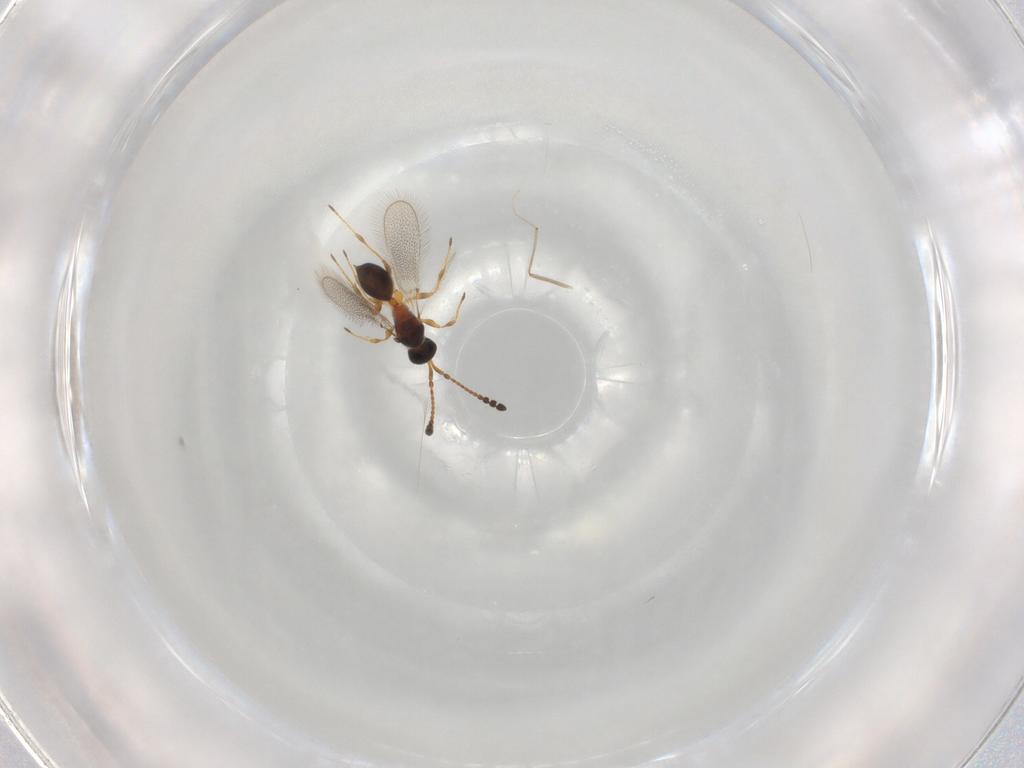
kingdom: Animalia
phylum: Arthropoda
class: Insecta
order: Hymenoptera
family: Diapriidae
